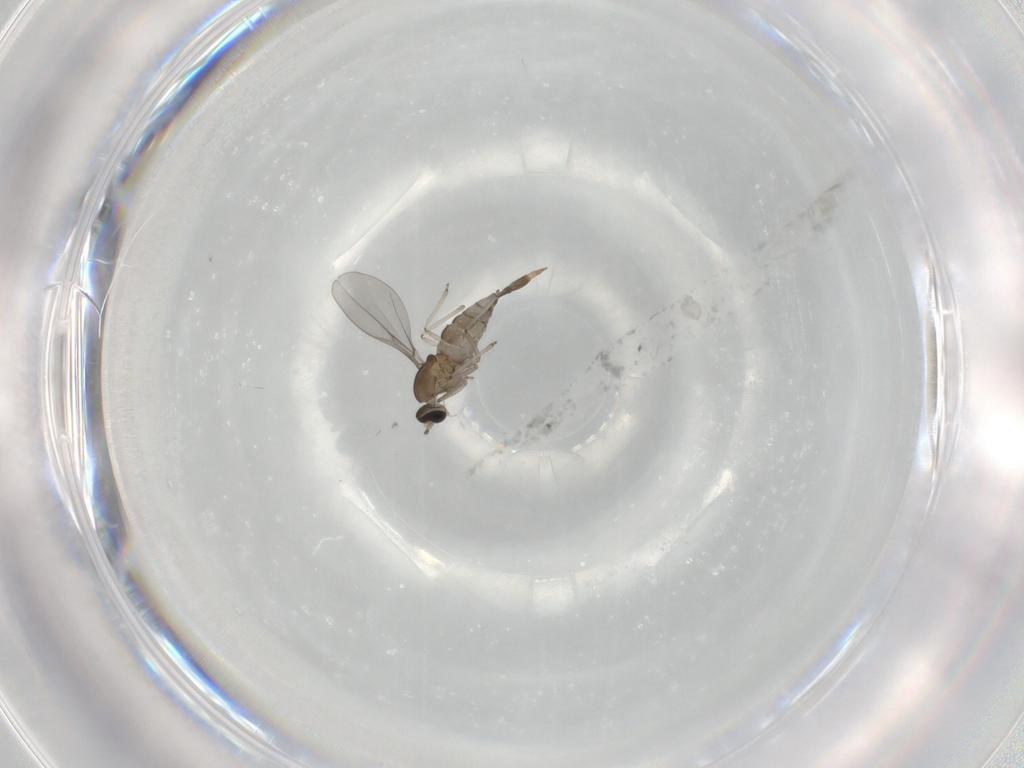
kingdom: Animalia
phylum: Arthropoda
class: Insecta
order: Diptera
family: Cecidomyiidae
